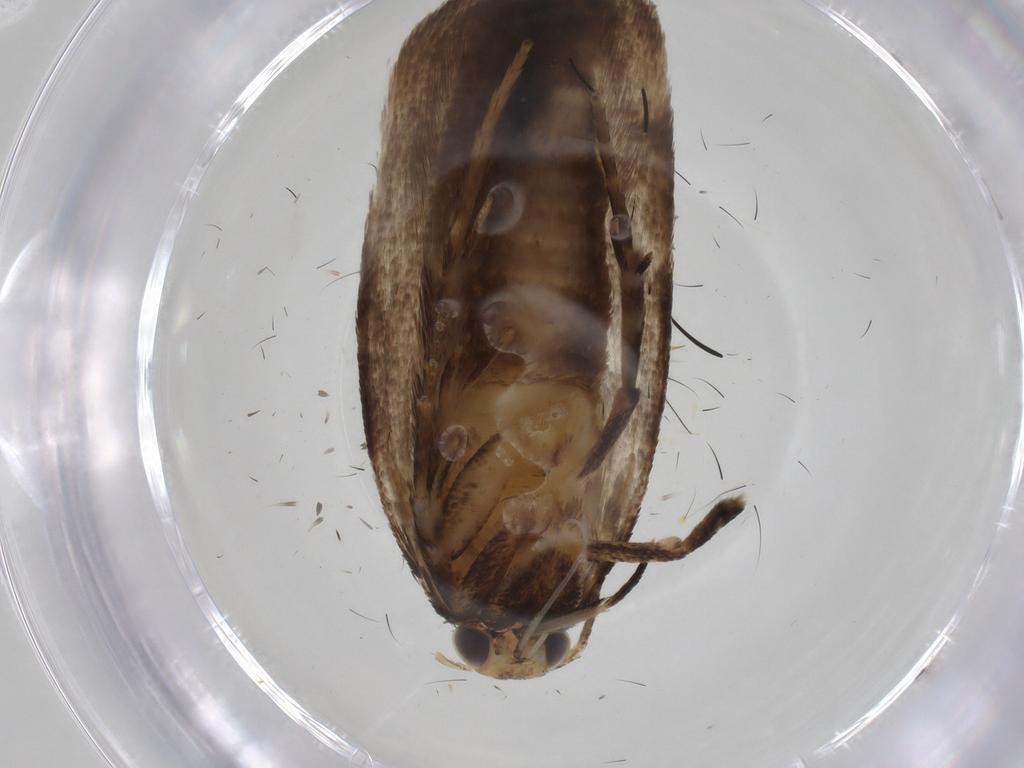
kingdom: Animalia
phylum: Arthropoda
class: Insecta
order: Lepidoptera
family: Gelechiidae
